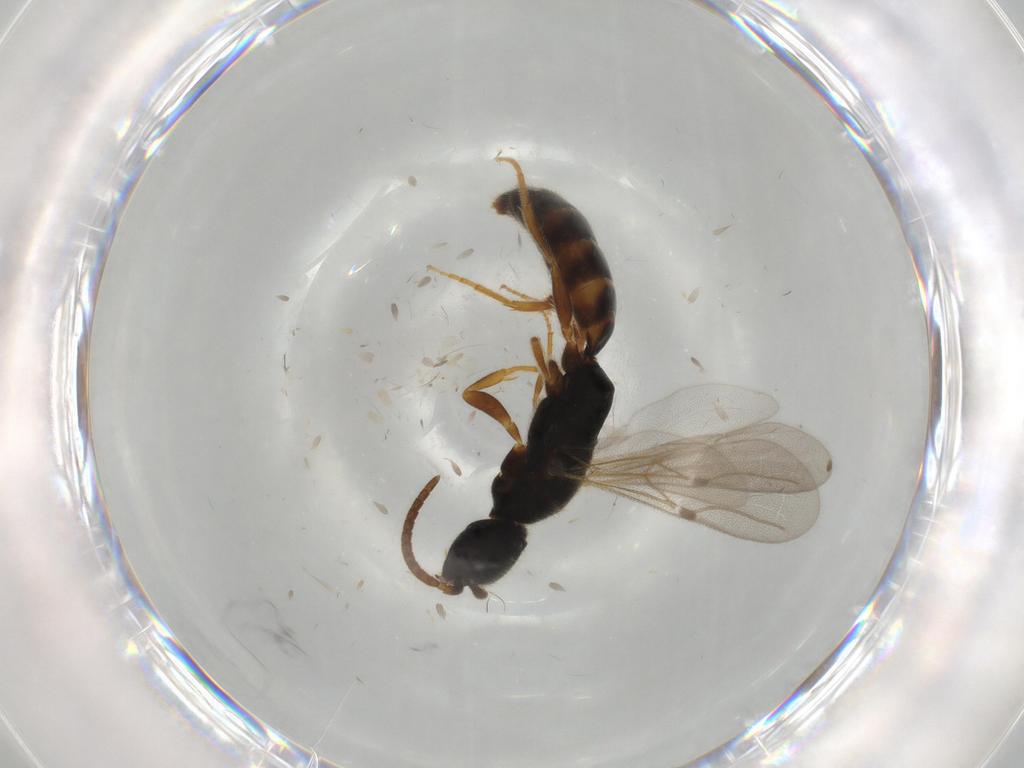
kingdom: Animalia
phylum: Arthropoda
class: Insecta
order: Hymenoptera
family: Bethylidae
